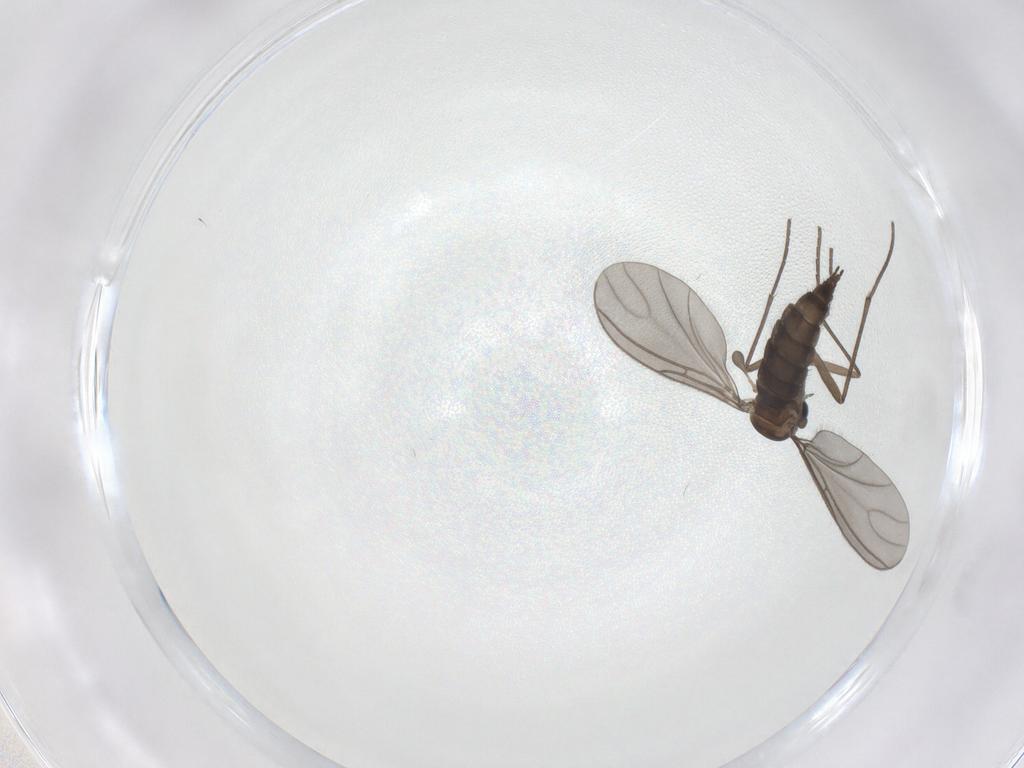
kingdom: Animalia
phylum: Arthropoda
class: Insecta
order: Diptera
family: Sciaridae
